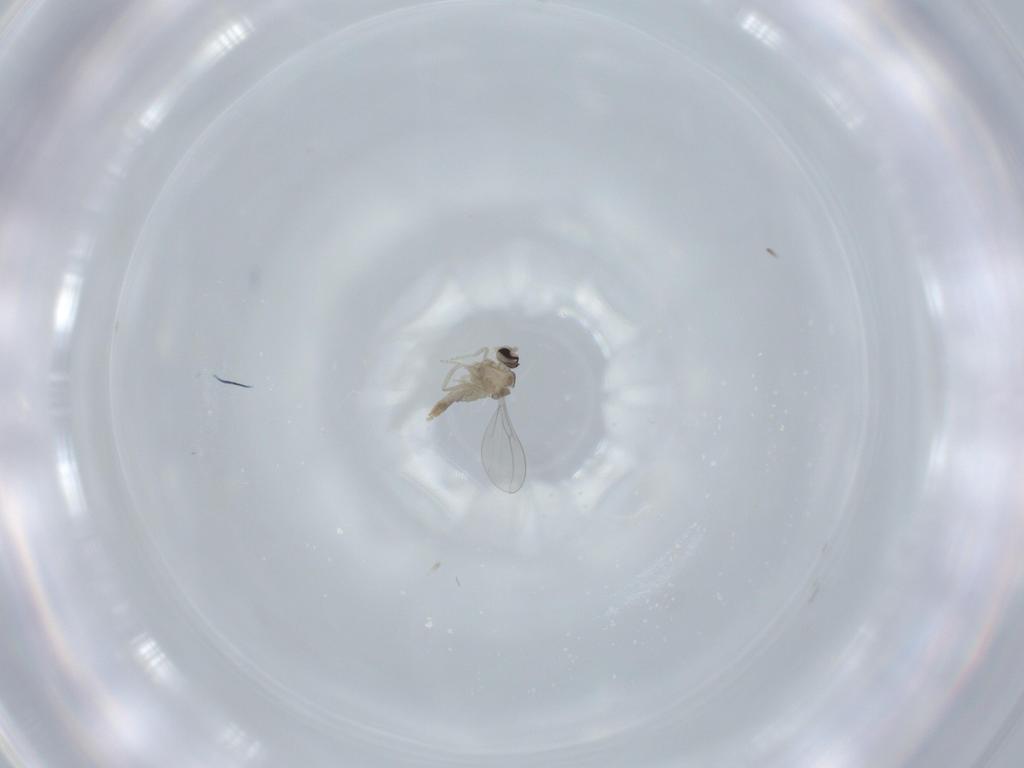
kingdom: Animalia
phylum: Arthropoda
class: Insecta
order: Diptera
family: Cecidomyiidae
